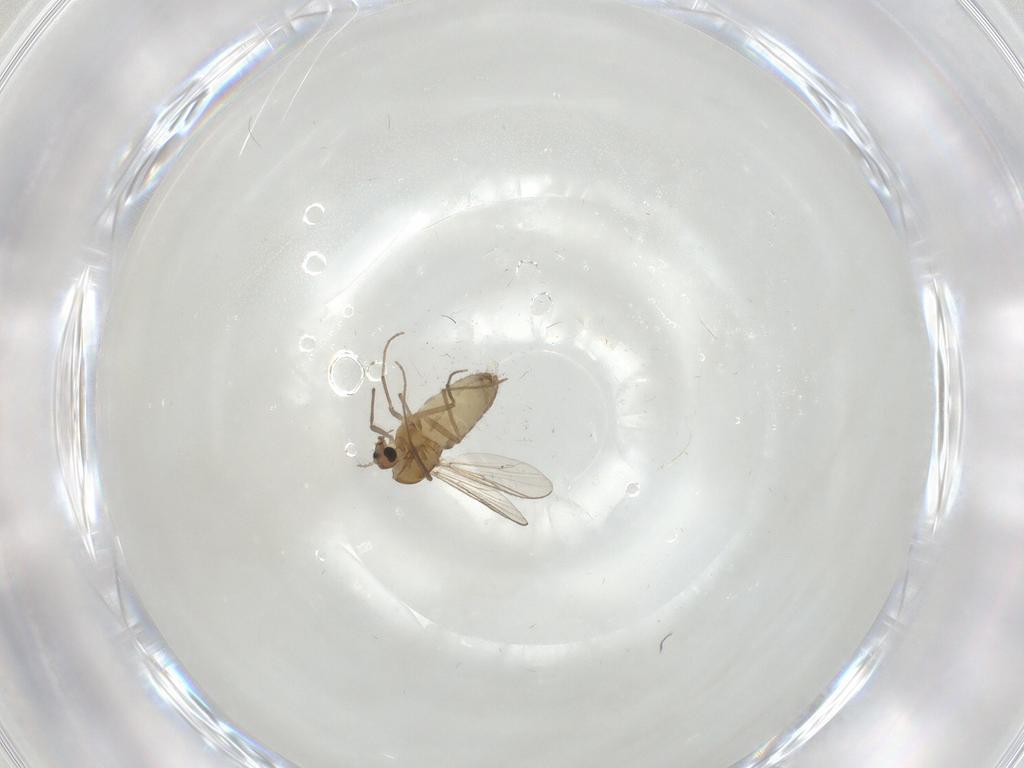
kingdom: Animalia
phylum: Arthropoda
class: Insecta
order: Diptera
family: Chironomidae
